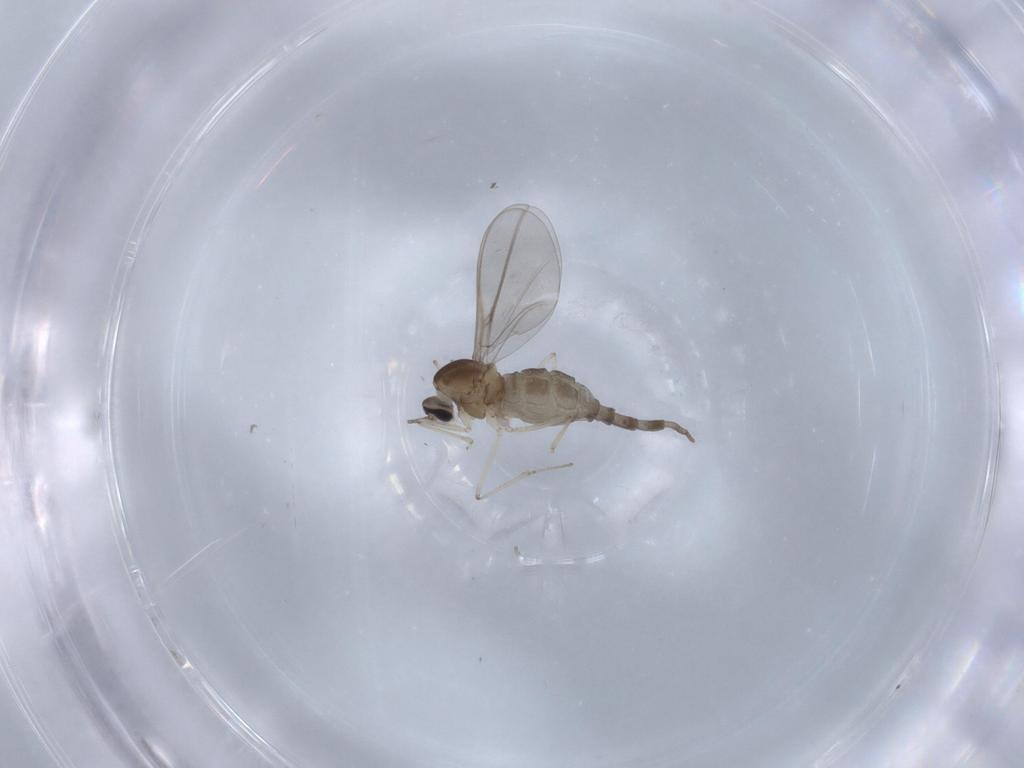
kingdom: Animalia
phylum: Arthropoda
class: Insecta
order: Diptera
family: Cecidomyiidae
